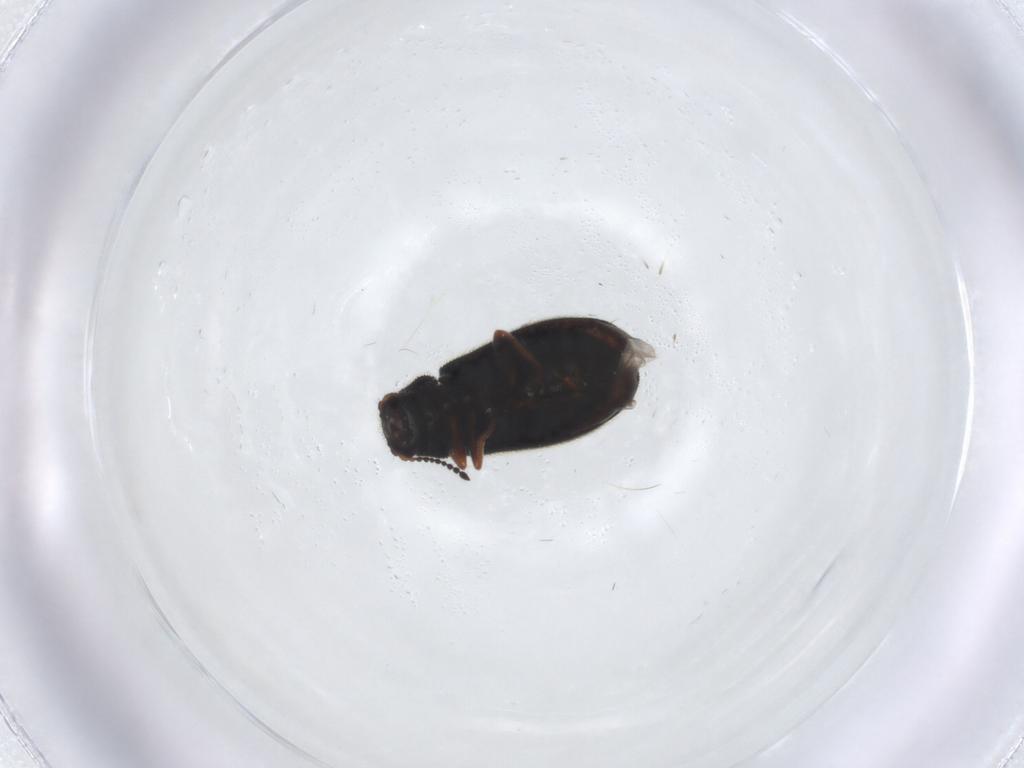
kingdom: Animalia
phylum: Arthropoda
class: Insecta
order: Coleoptera
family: Melyridae
